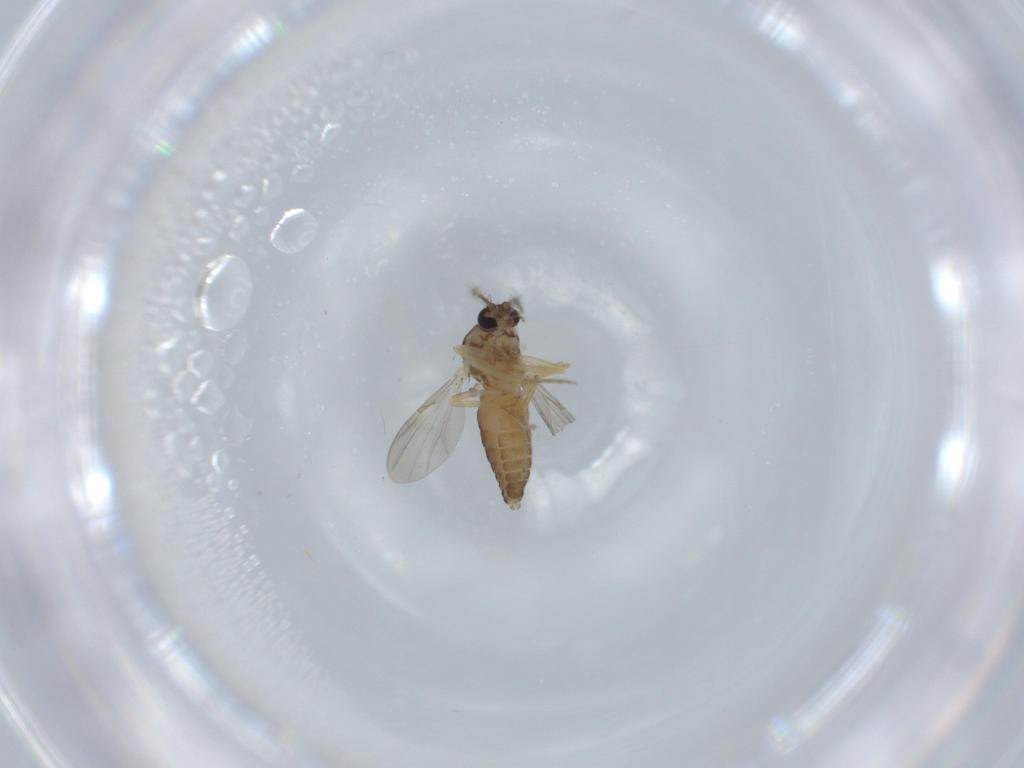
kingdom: Animalia
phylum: Arthropoda
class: Insecta
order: Diptera
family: Ceratopogonidae
